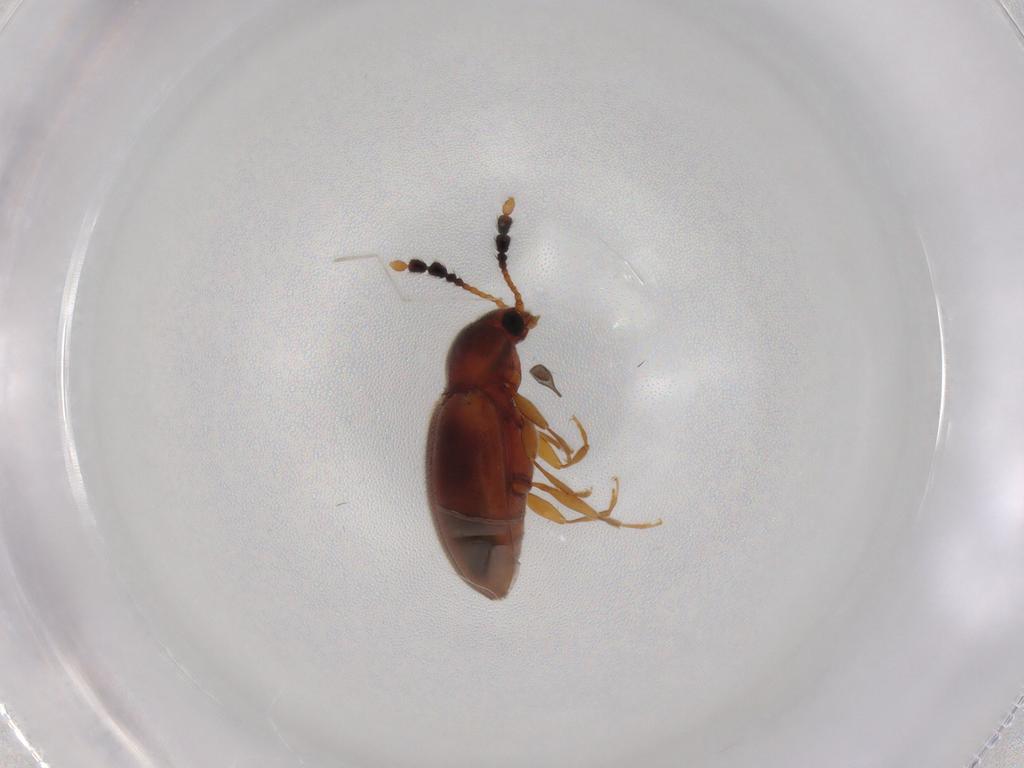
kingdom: Animalia
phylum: Arthropoda
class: Insecta
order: Coleoptera
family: Erotylidae
